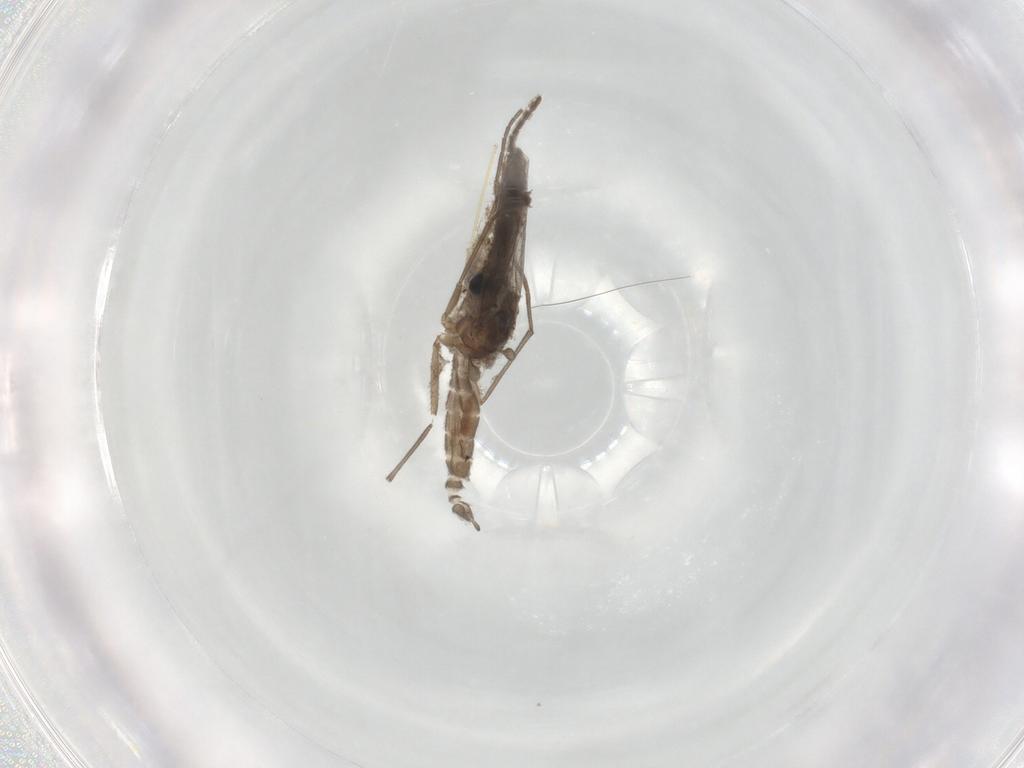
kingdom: Animalia
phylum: Arthropoda
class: Insecta
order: Diptera
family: Sciaridae
